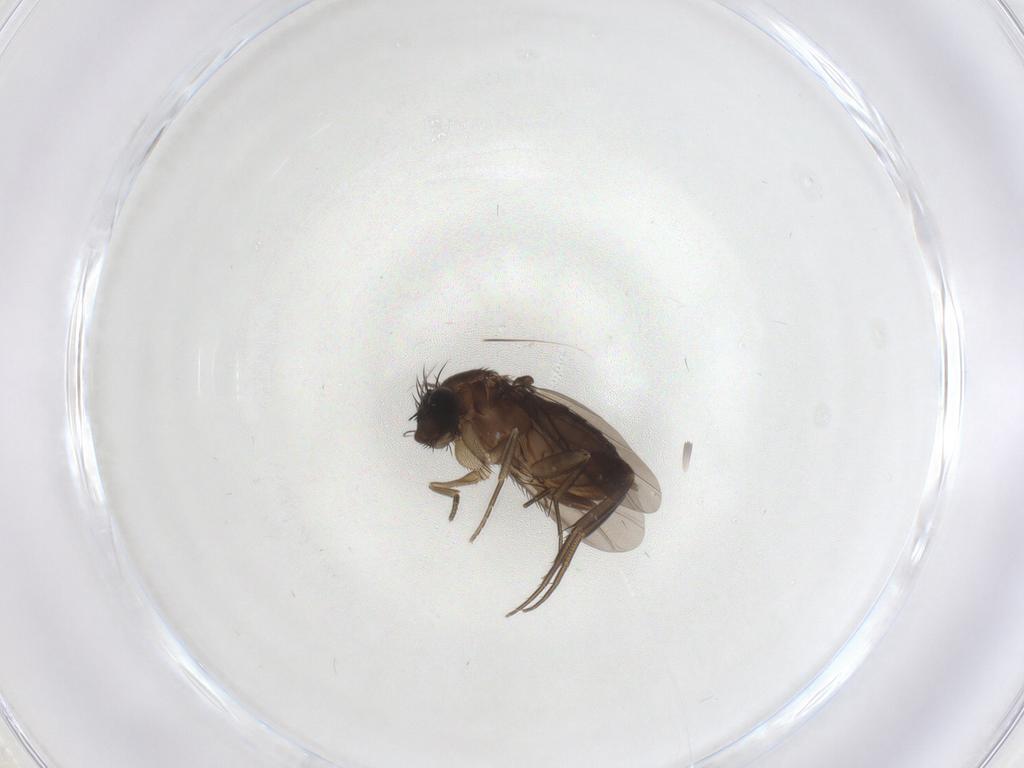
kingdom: Animalia
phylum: Arthropoda
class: Insecta
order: Diptera
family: Phoridae
